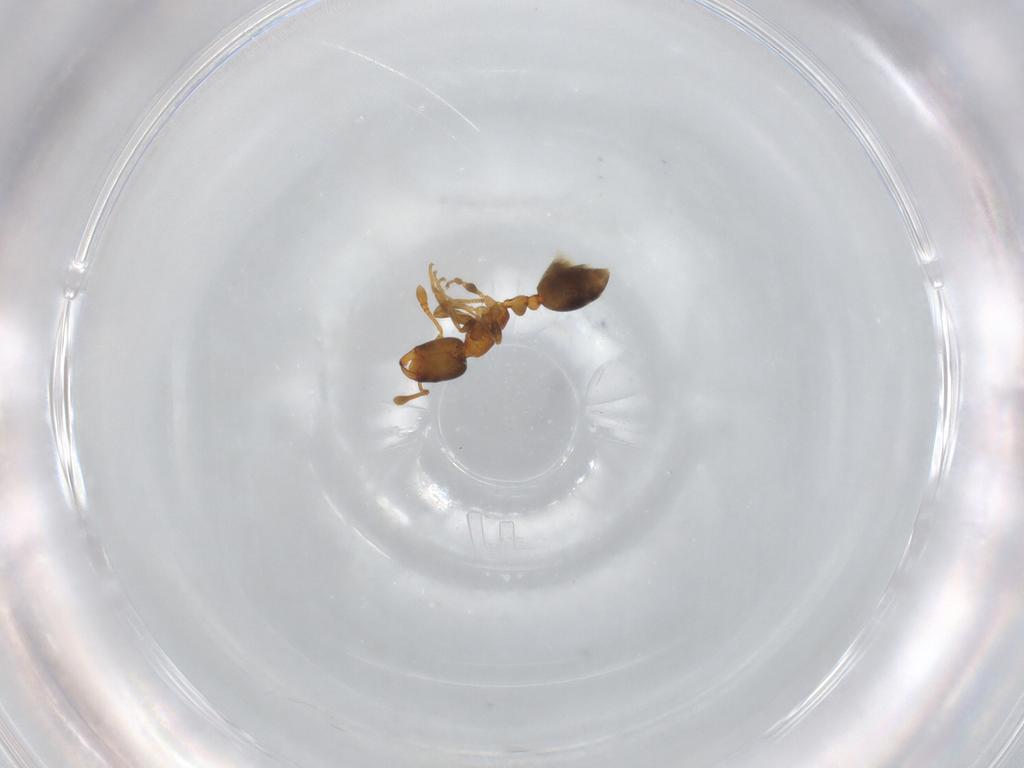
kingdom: Animalia
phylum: Arthropoda
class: Insecta
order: Hymenoptera
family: Formicidae
